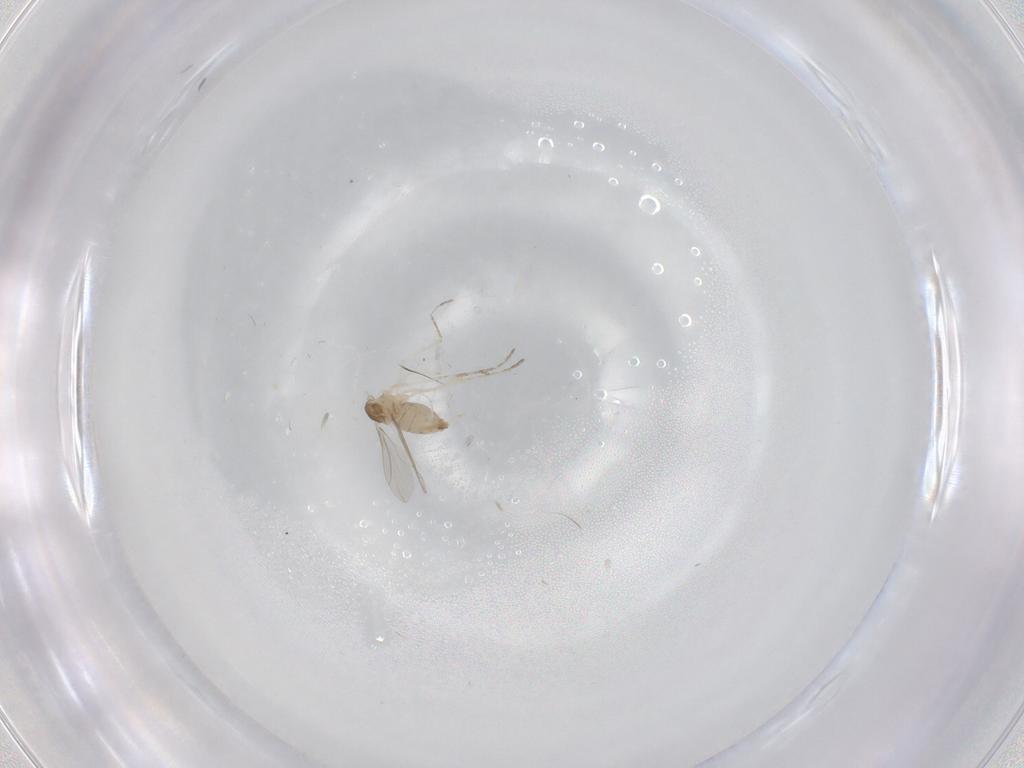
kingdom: Animalia
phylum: Arthropoda
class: Insecta
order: Diptera
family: Cecidomyiidae
